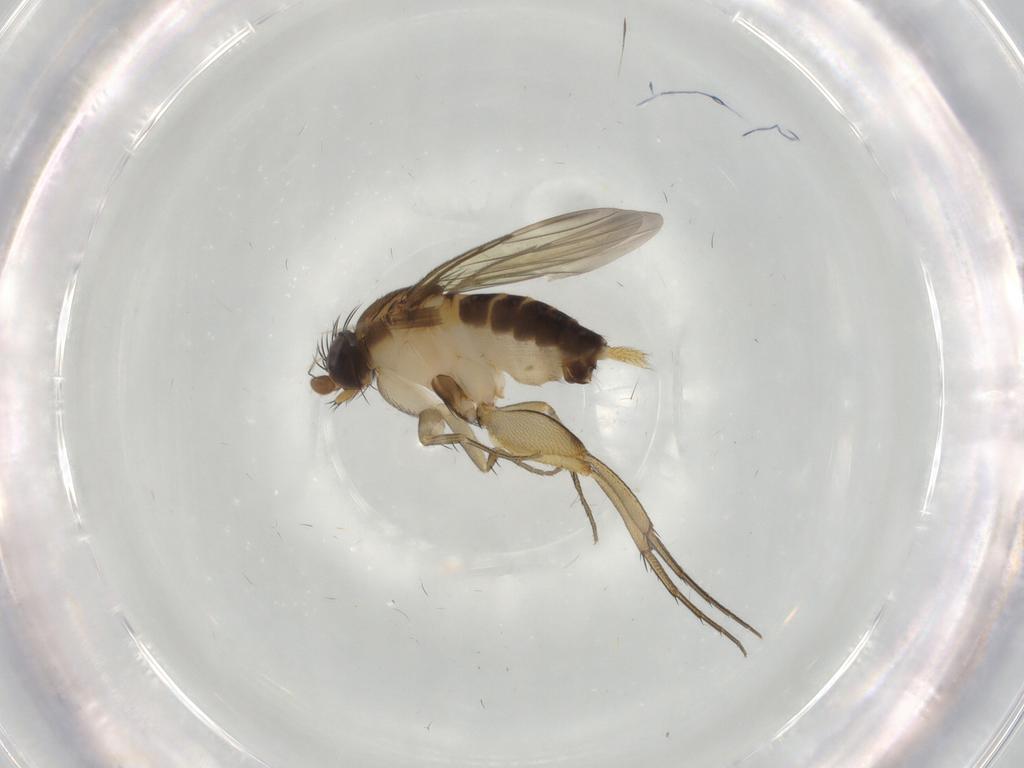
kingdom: Animalia
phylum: Arthropoda
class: Insecta
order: Diptera
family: Phoridae
